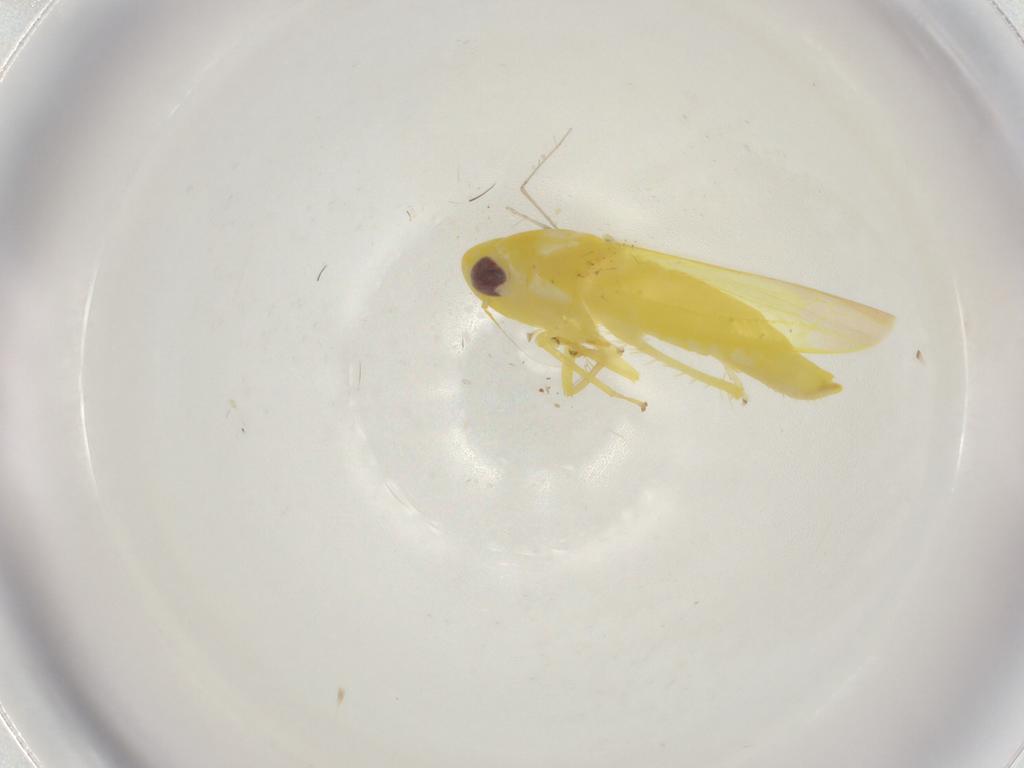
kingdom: Animalia
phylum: Arthropoda
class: Insecta
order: Hemiptera
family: Cicadellidae
